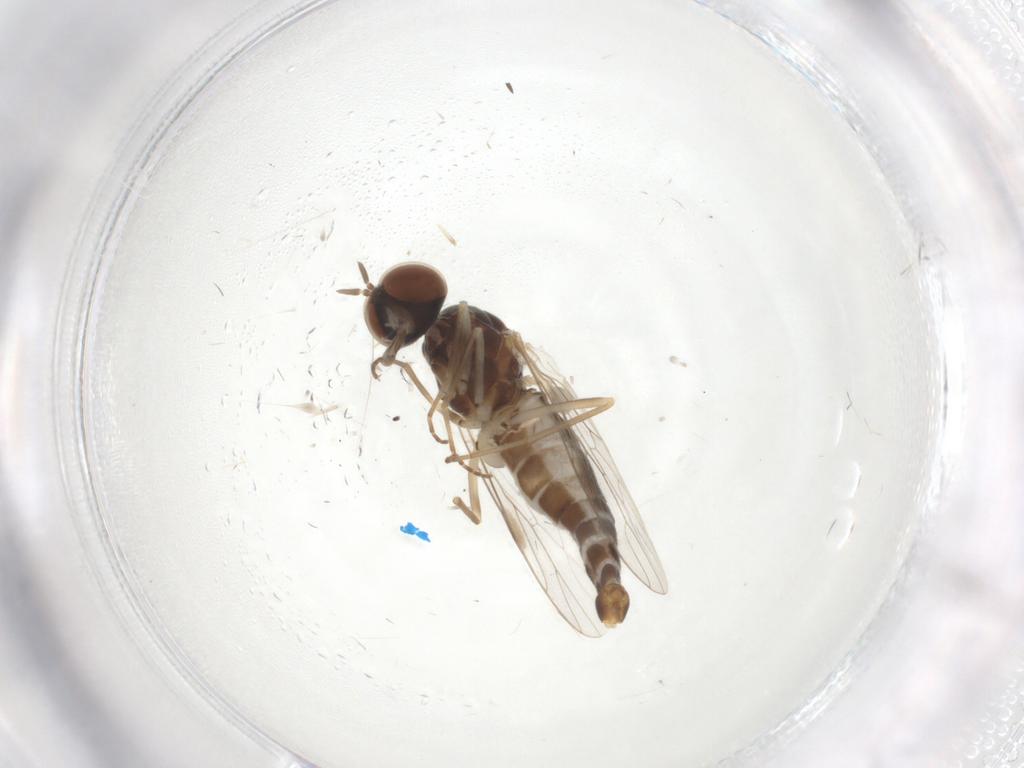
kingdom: Animalia
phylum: Arthropoda
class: Insecta
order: Diptera
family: Scenopinidae
